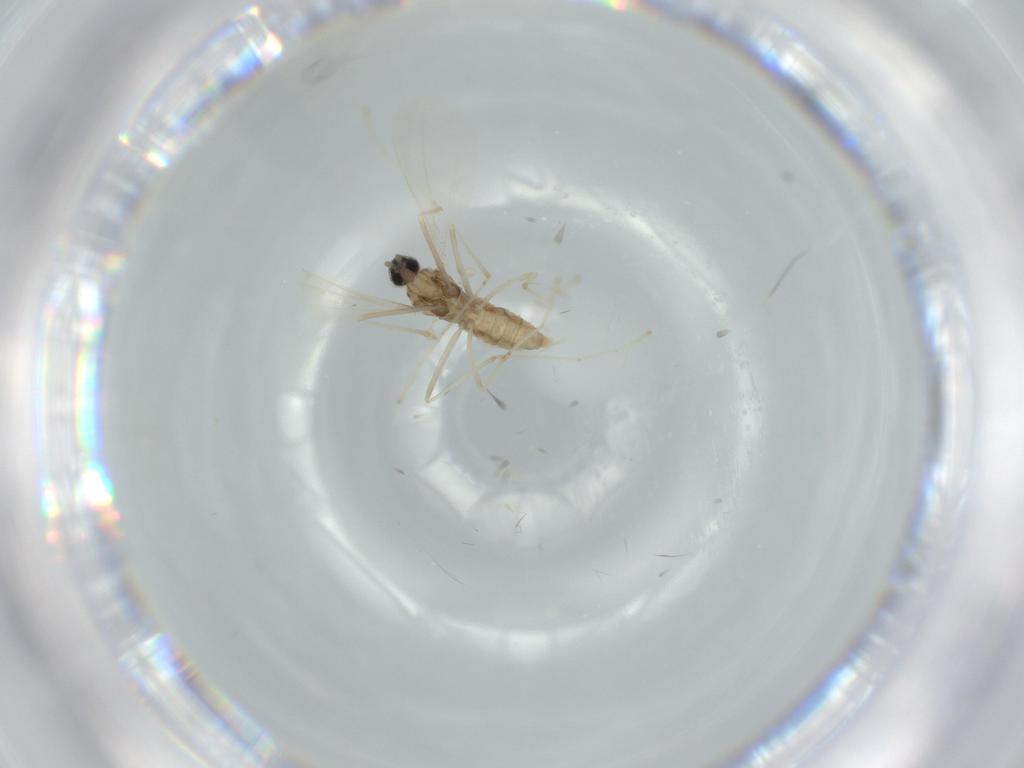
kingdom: Animalia
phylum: Arthropoda
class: Insecta
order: Diptera
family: Cecidomyiidae
